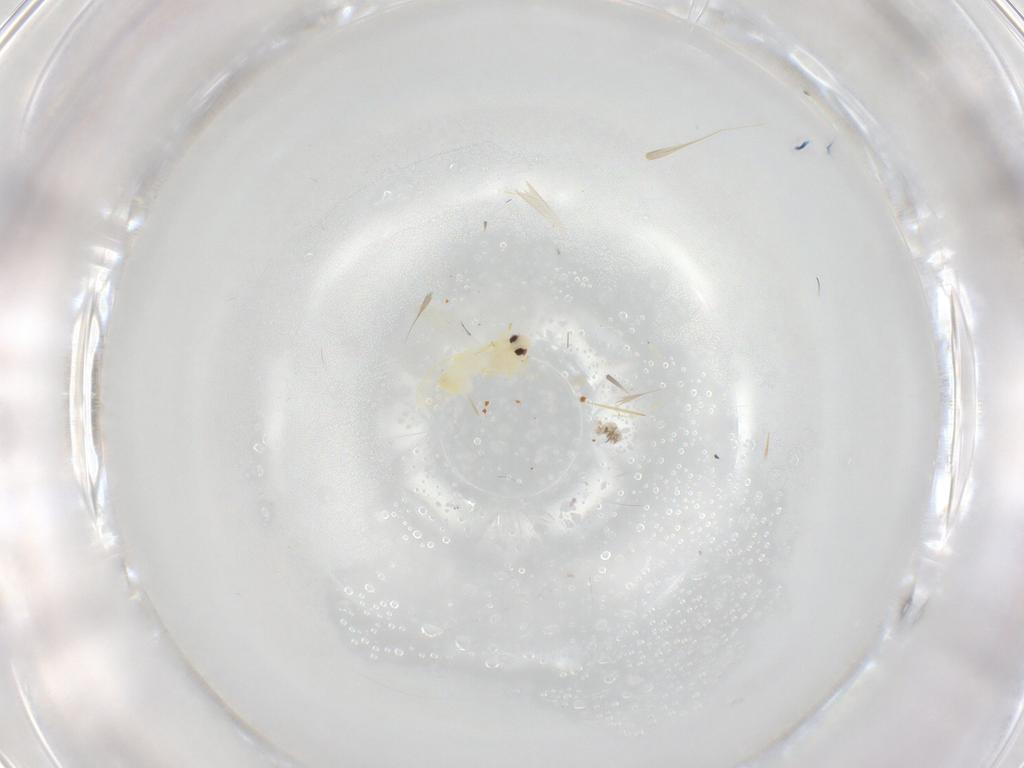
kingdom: Animalia
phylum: Arthropoda
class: Insecta
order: Hemiptera
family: Aleyrodidae
